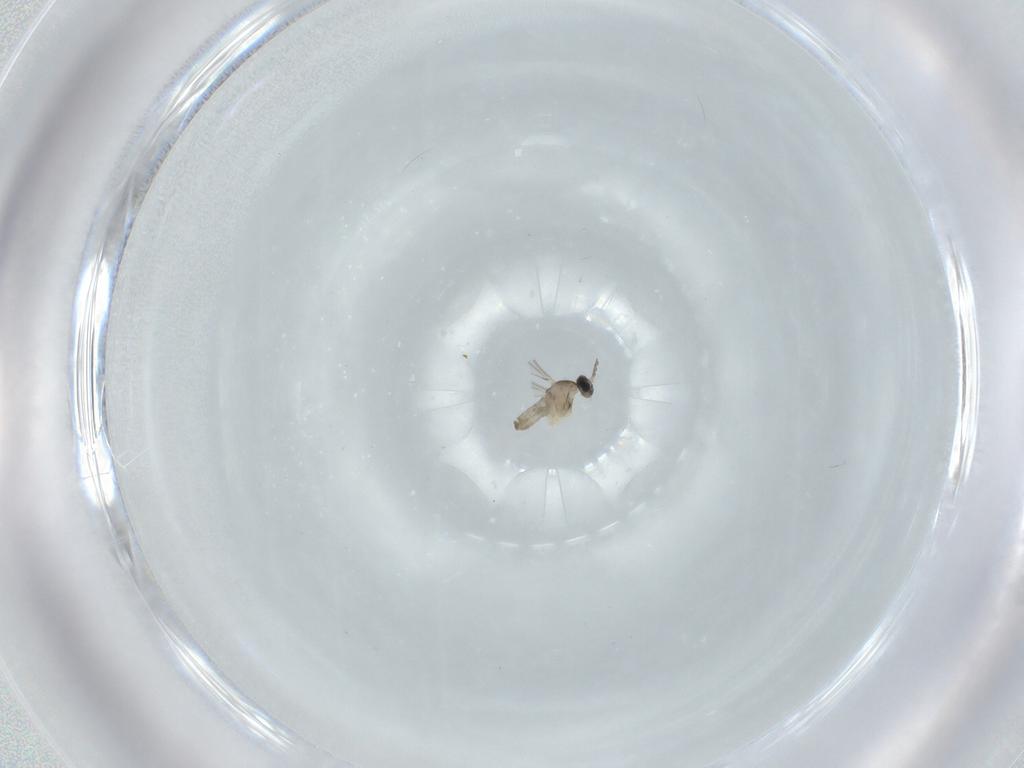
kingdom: Animalia
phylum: Arthropoda
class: Insecta
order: Diptera
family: Cecidomyiidae
